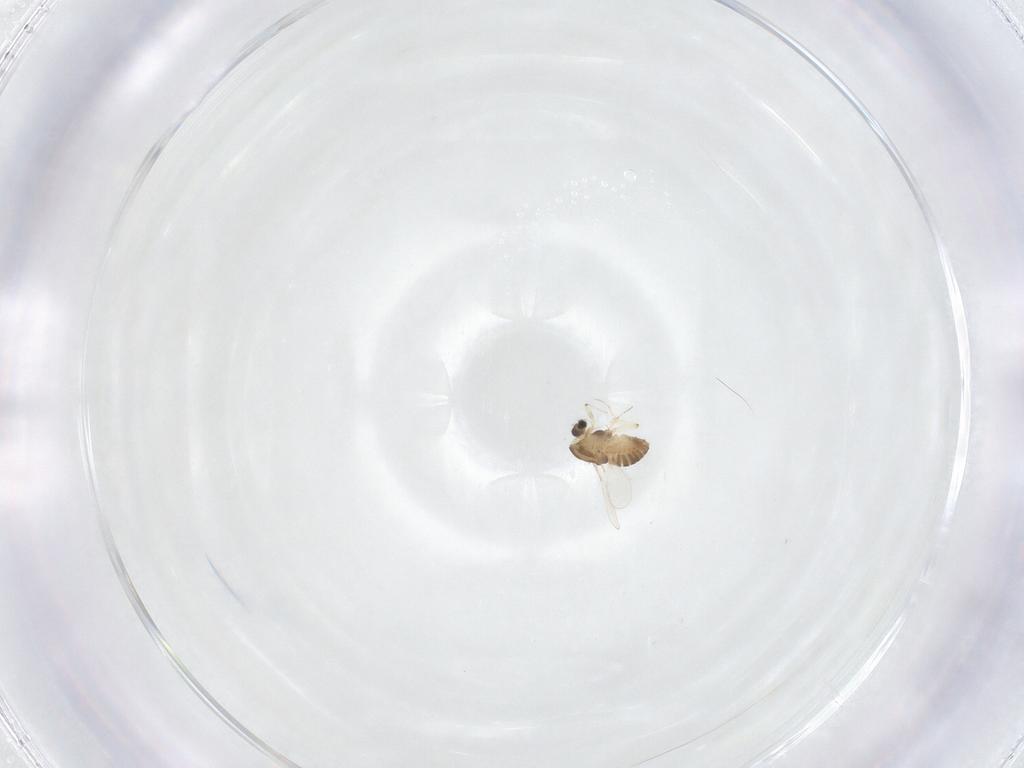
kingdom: Animalia
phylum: Arthropoda
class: Insecta
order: Diptera
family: Chironomidae
